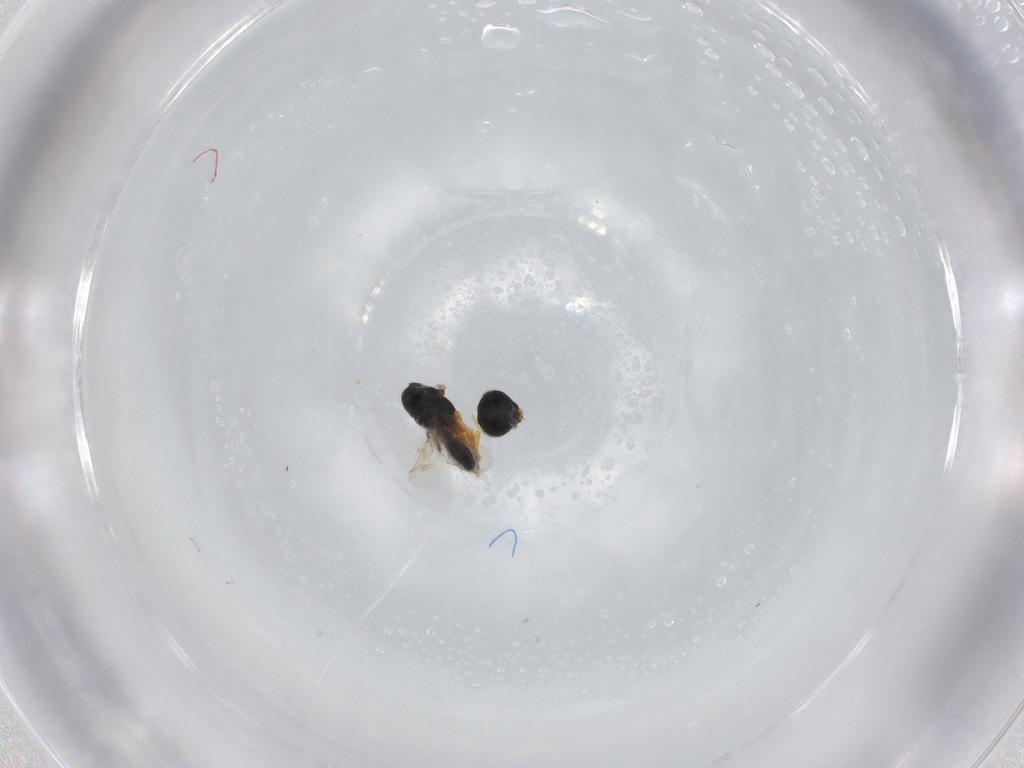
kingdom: Animalia
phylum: Arthropoda
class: Insecta
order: Hymenoptera
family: Scelionidae
